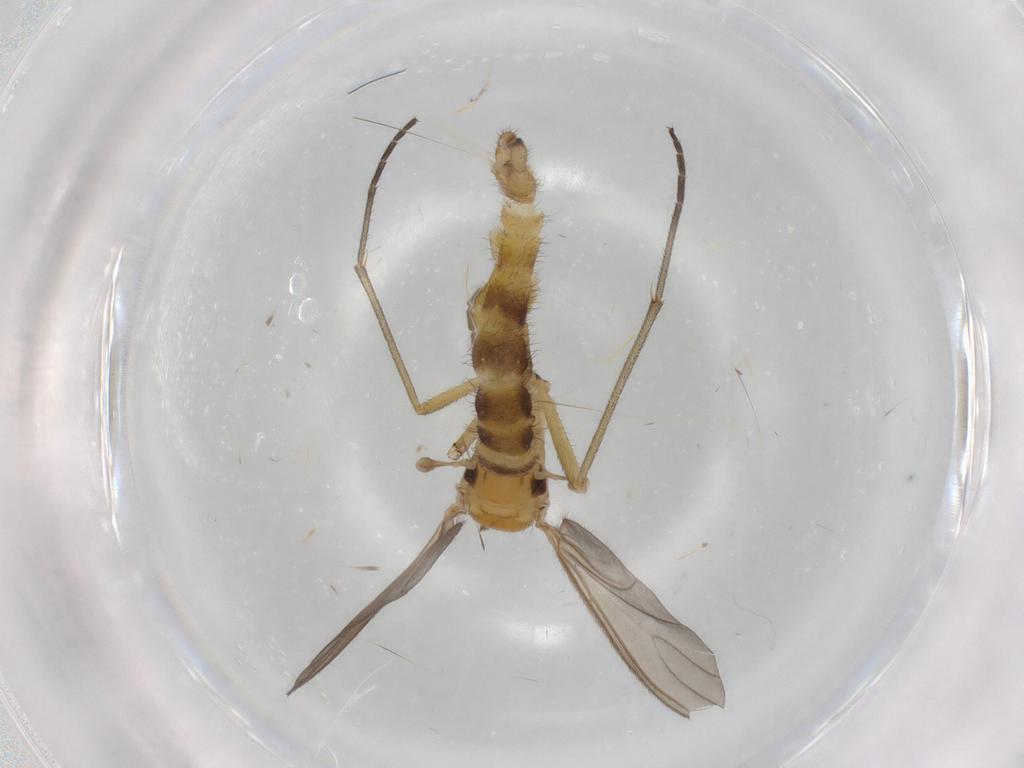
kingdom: Animalia
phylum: Arthropoda
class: Insecta
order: Diptera
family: Sciaridae
